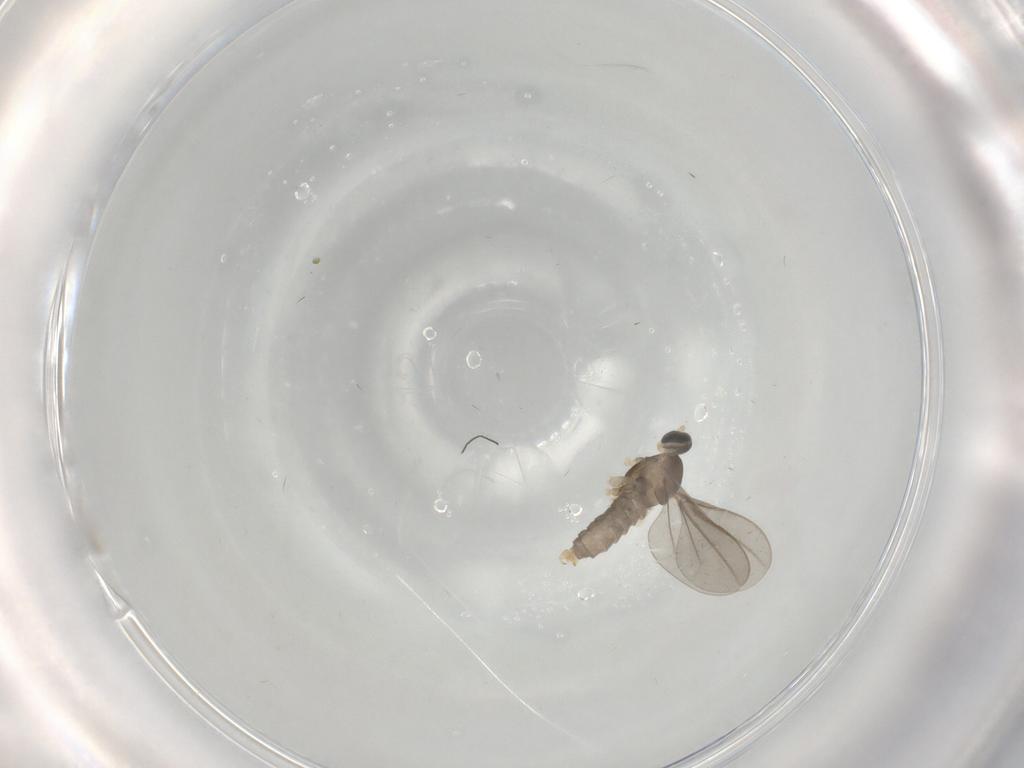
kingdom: Animalia
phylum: Arthropoda
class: Insecta
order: Diptera
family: Cecidomyiidae
